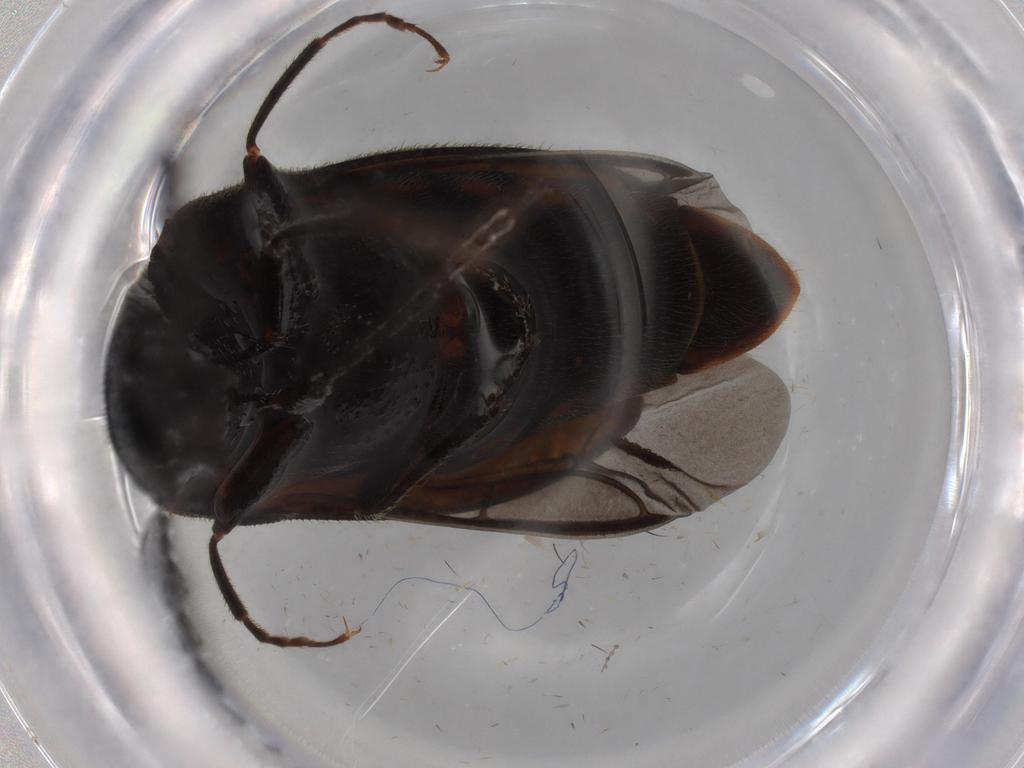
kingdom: Animalia
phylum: Arthropoda
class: Insecta
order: Coleoptera
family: Elateridae
